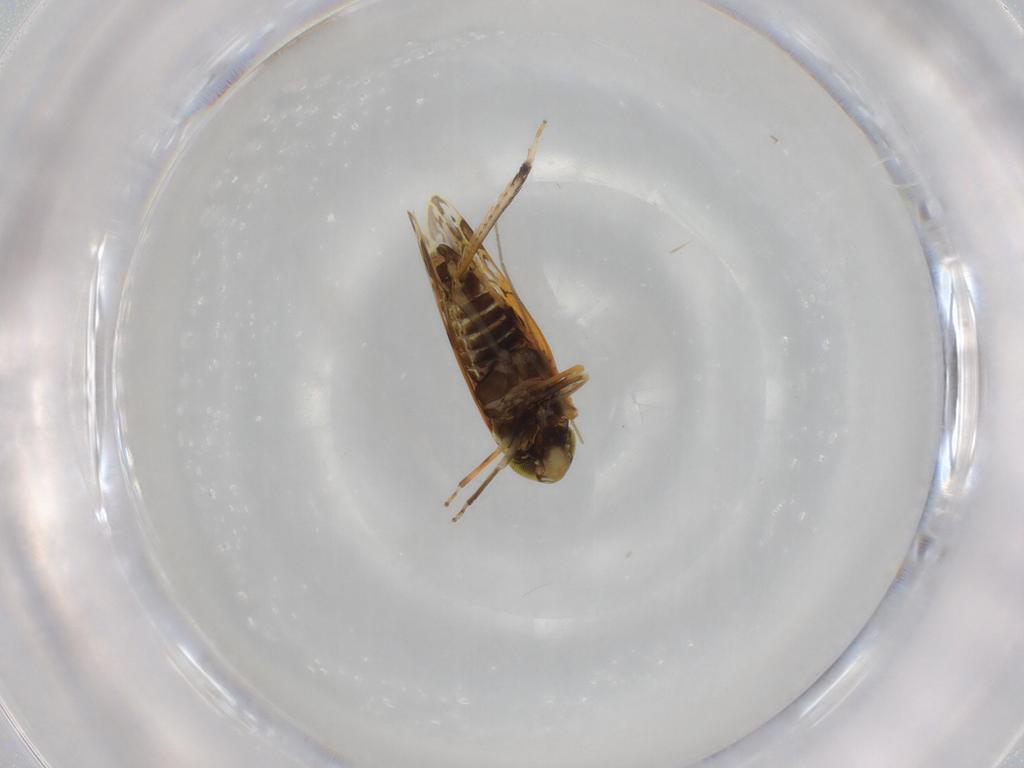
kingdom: Animalia
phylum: Arthropoda
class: Insecta
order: Hemiptera
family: Cicadellidae
